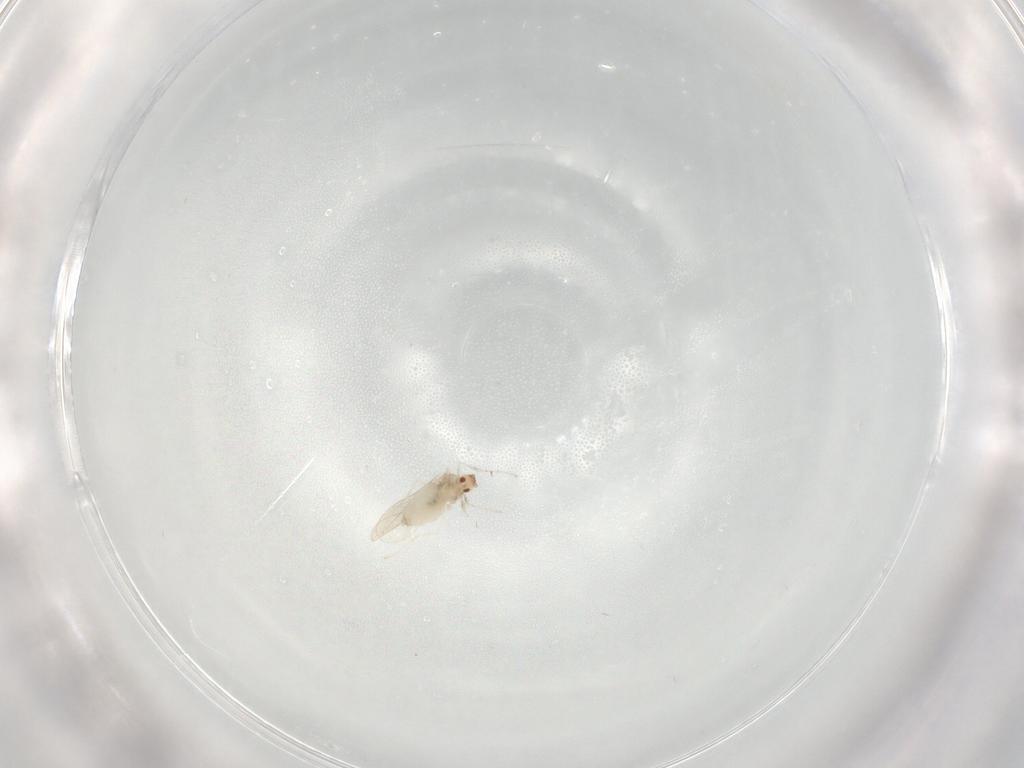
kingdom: Animalia
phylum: Arthropoda
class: Insecta
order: Diptera
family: Cecidomyiidae
